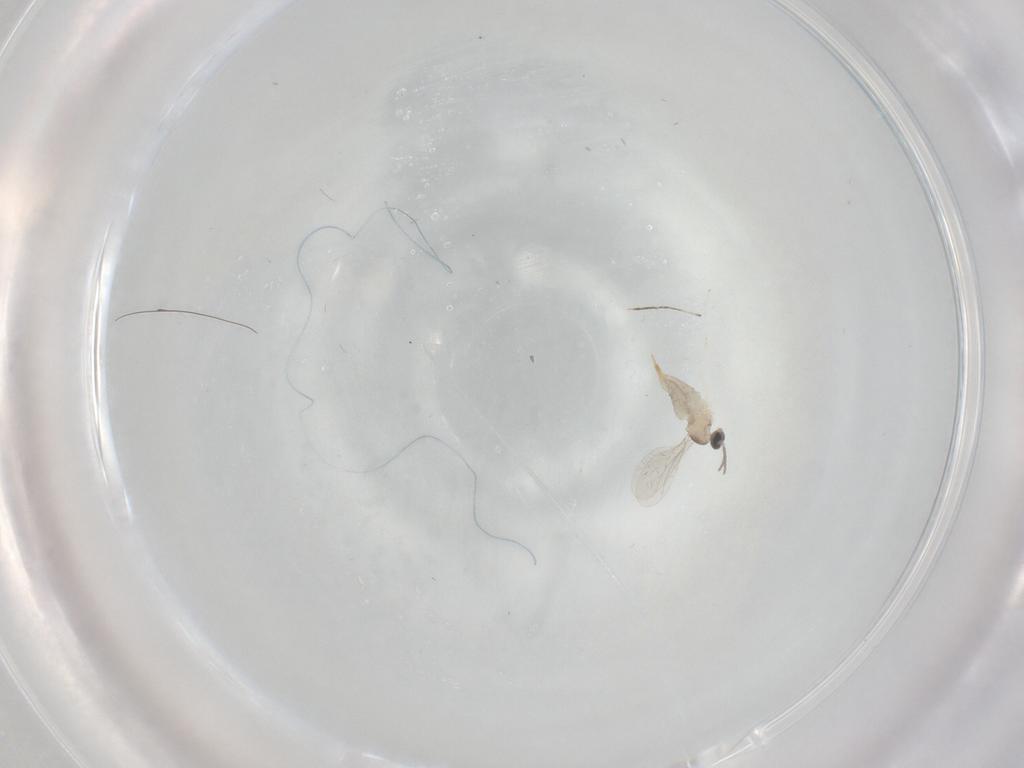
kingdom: Animalia
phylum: Arthropoda
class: Insecta
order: Diptera
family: Cecidomyiidae
